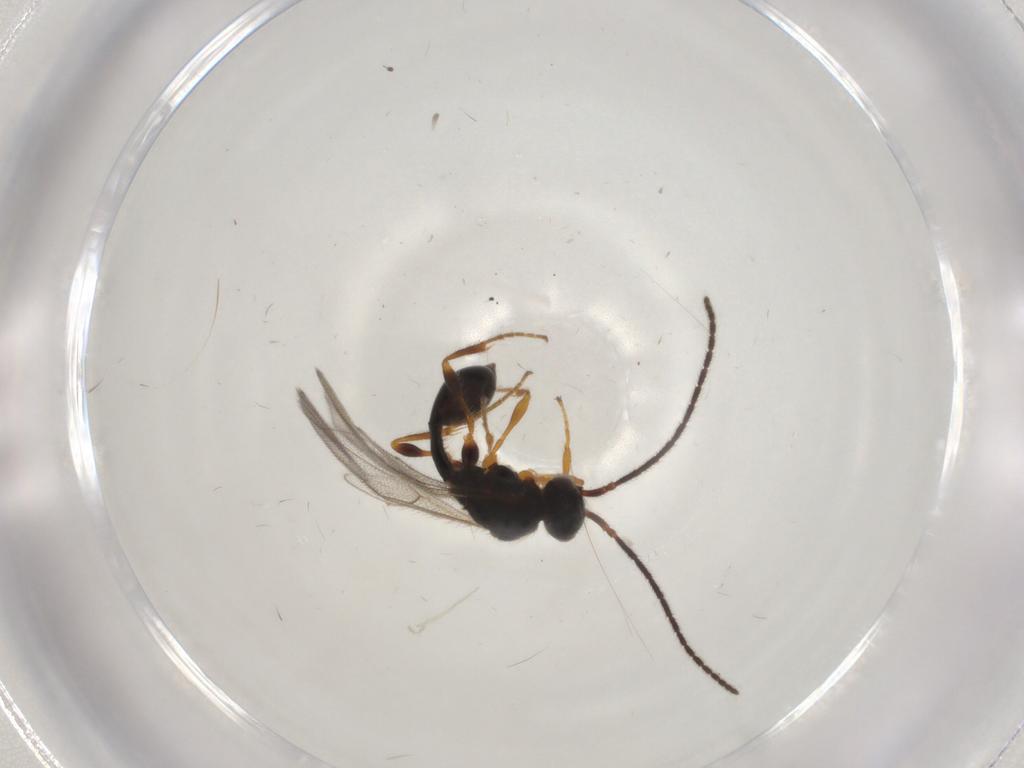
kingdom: Animalia
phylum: Arthropoda
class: Insecta
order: Hymenoptera
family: Diapriidae
